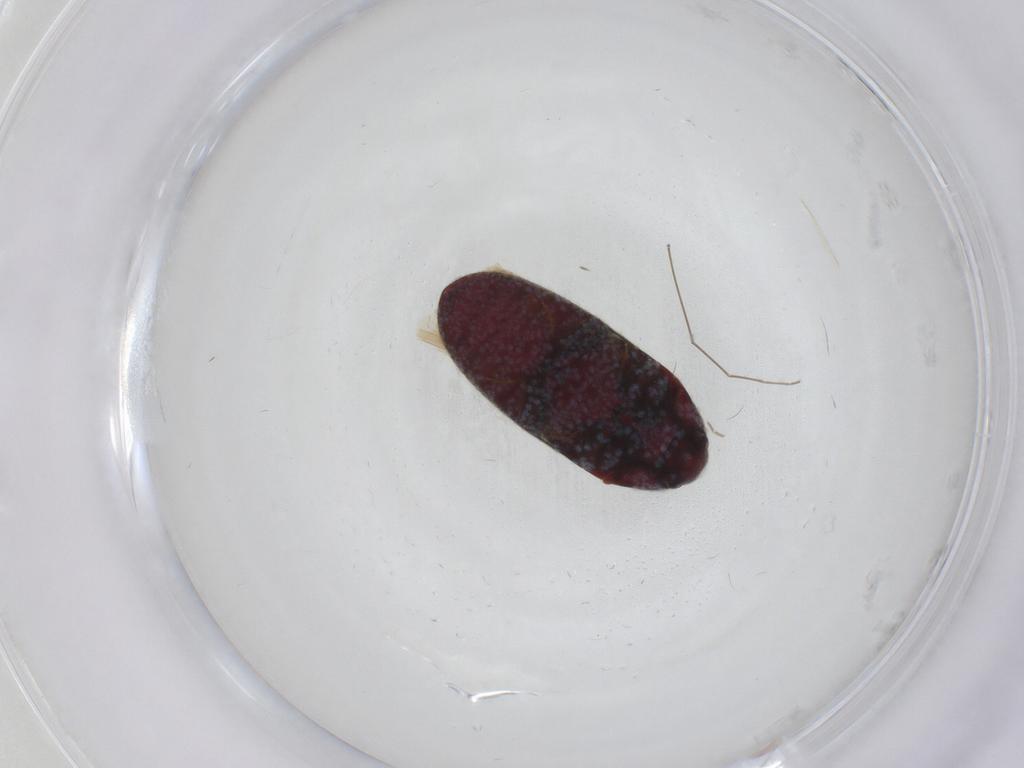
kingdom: Animalia
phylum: Arthropoda
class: Insecta
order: Coleoptera
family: Throscidae
